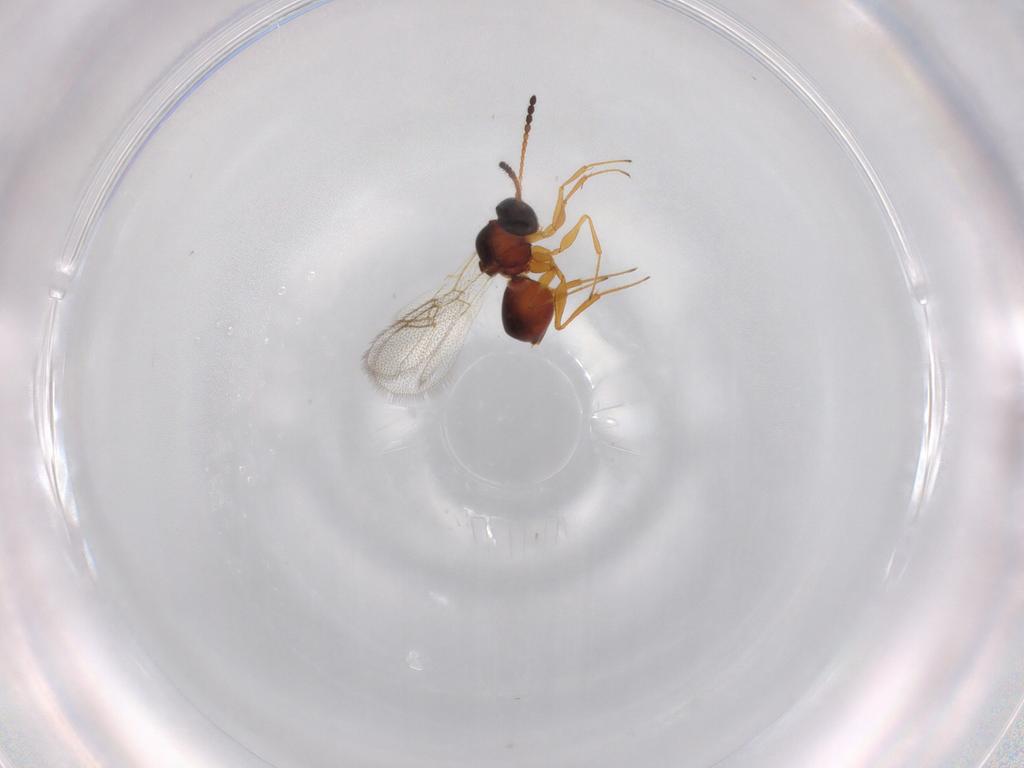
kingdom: Animalia
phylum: Arthropoda
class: Insecta
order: Hymenoptera
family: Figitidae
